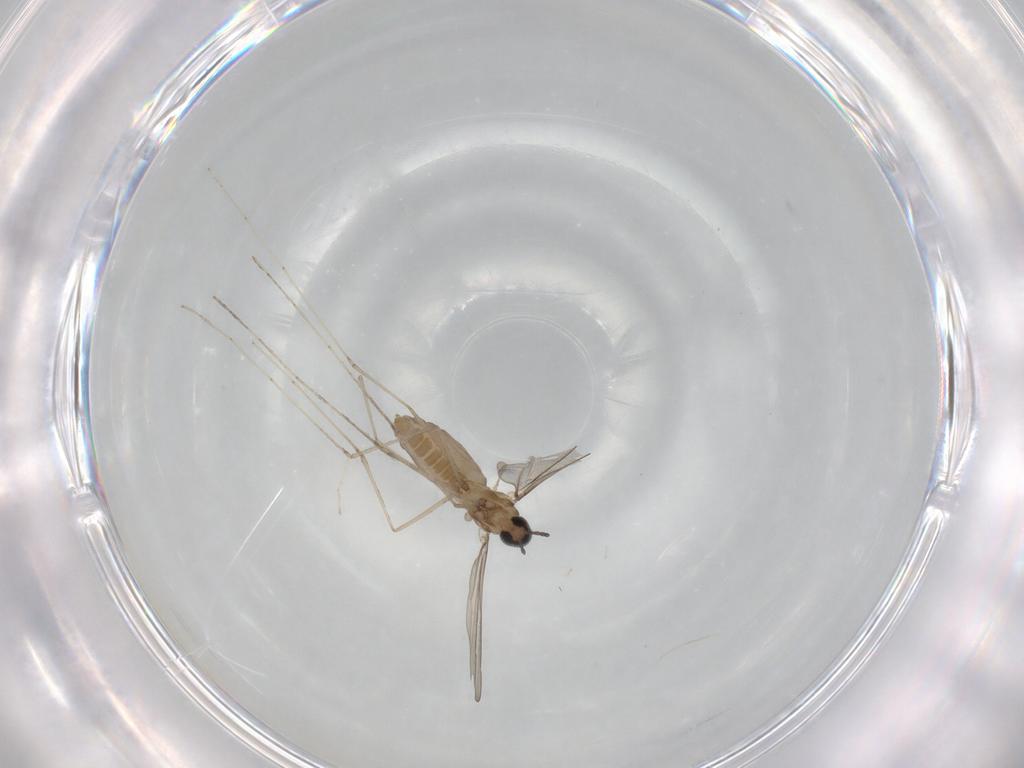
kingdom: Animalia
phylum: Arthropoda
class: Insecta
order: Diptera
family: Cecidomyiidae
